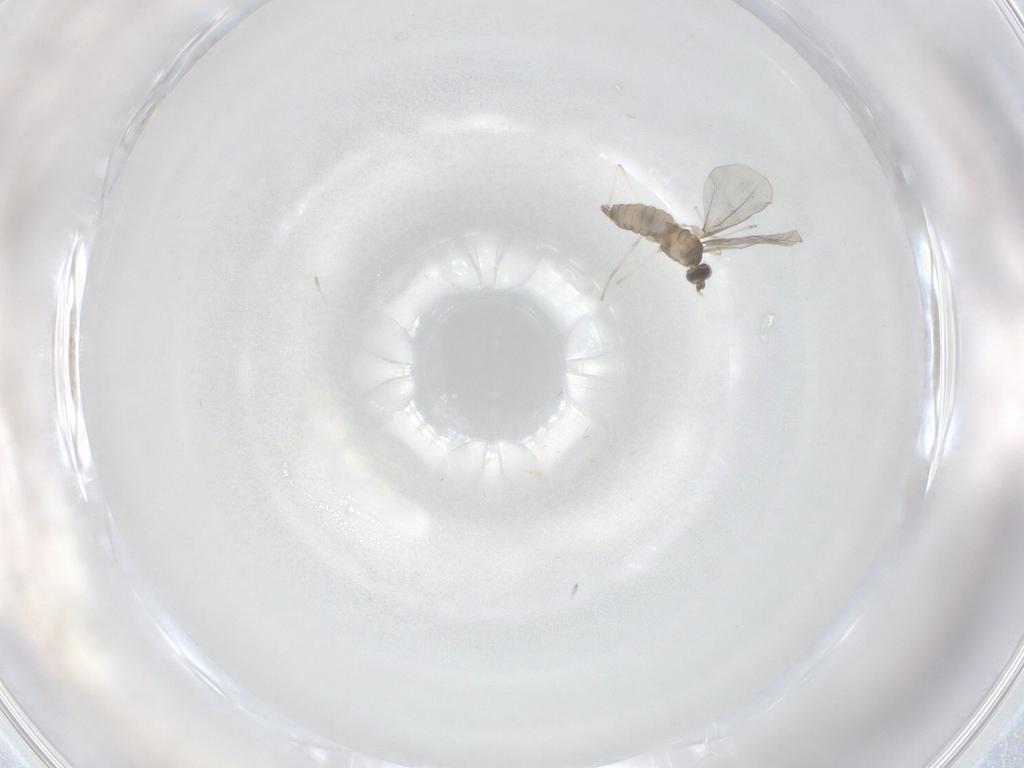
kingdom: Animalia
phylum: Arthropoda
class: Insecta
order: Diptera
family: Cecidomyiidae
